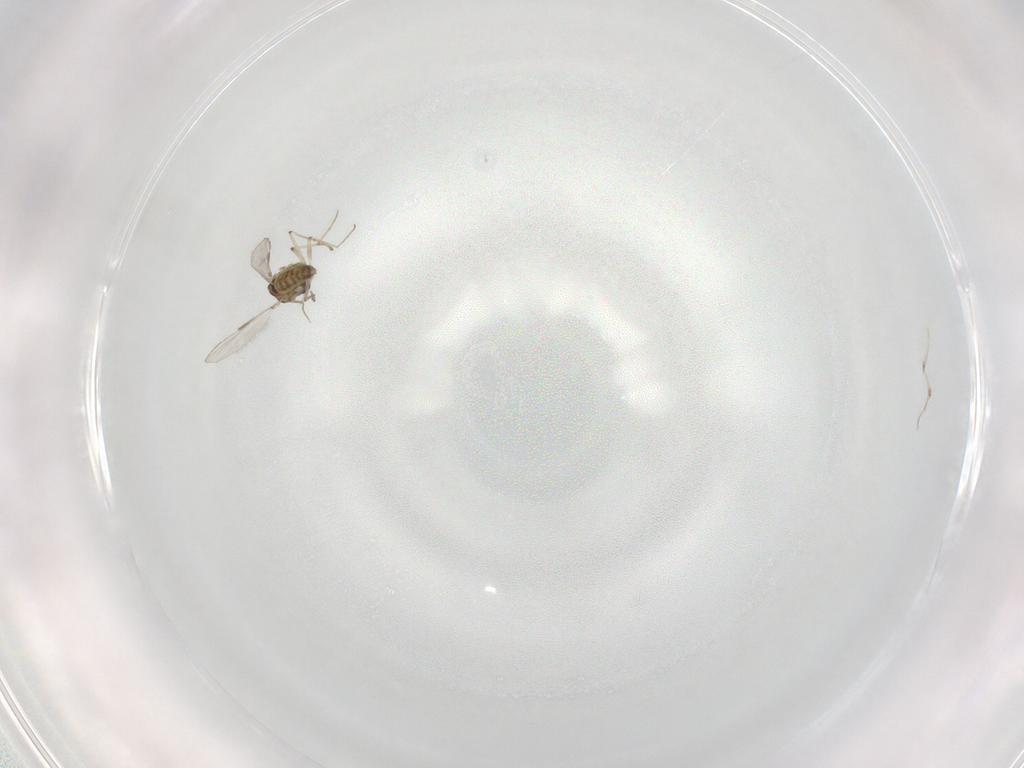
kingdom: Animalia
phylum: Arthropoda
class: Insecta
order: Diptera
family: Chironomidae
